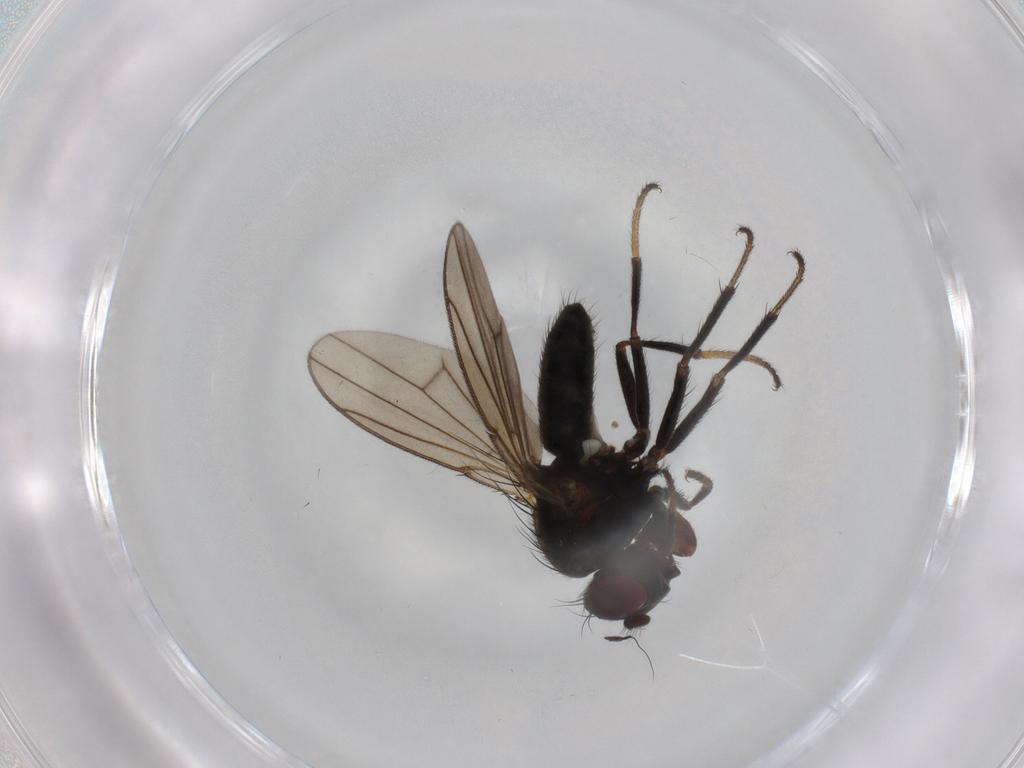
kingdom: Animalia
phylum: Arthropoda
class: Insecta
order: Diptera
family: Ephydridae
